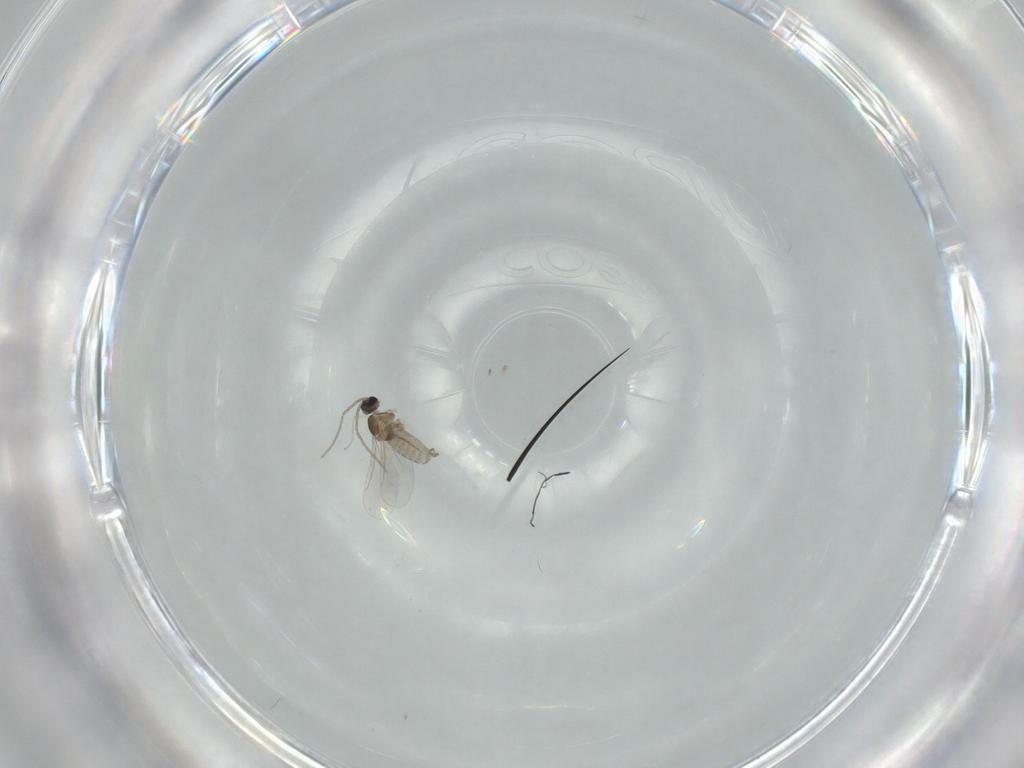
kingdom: Animalia
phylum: Arthropoda
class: Insecta
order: Diptera
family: Cecidomyiidae
